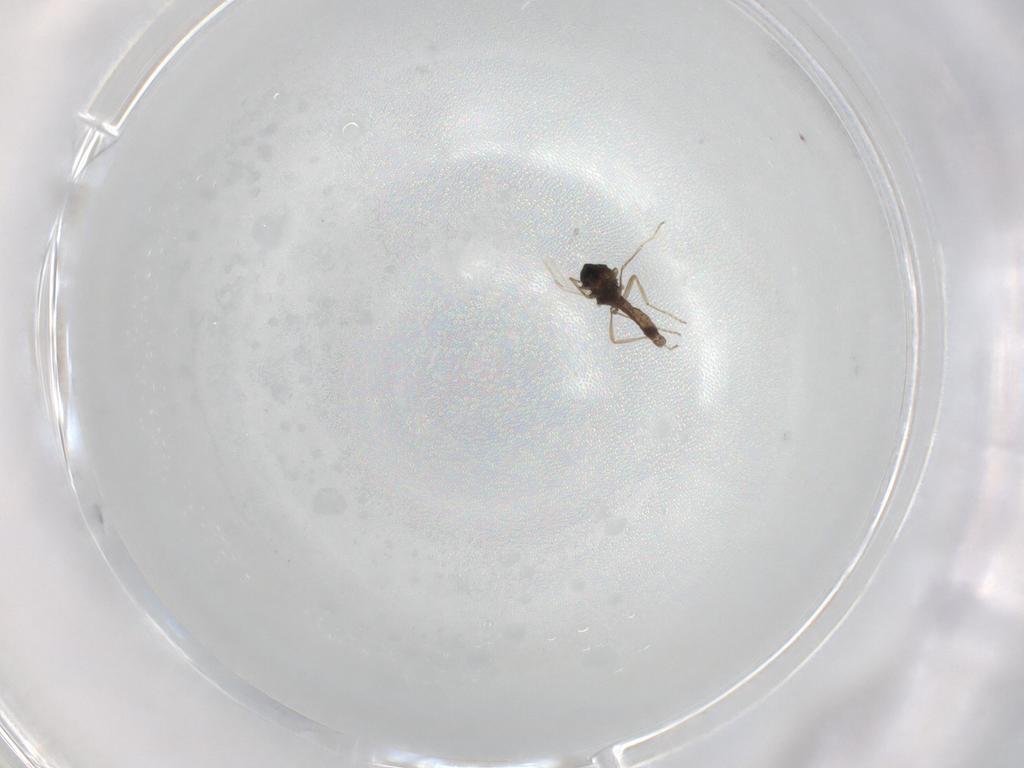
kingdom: Animalia
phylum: Arthropoda
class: Insecta
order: Diptera
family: Ceratopogonidae
